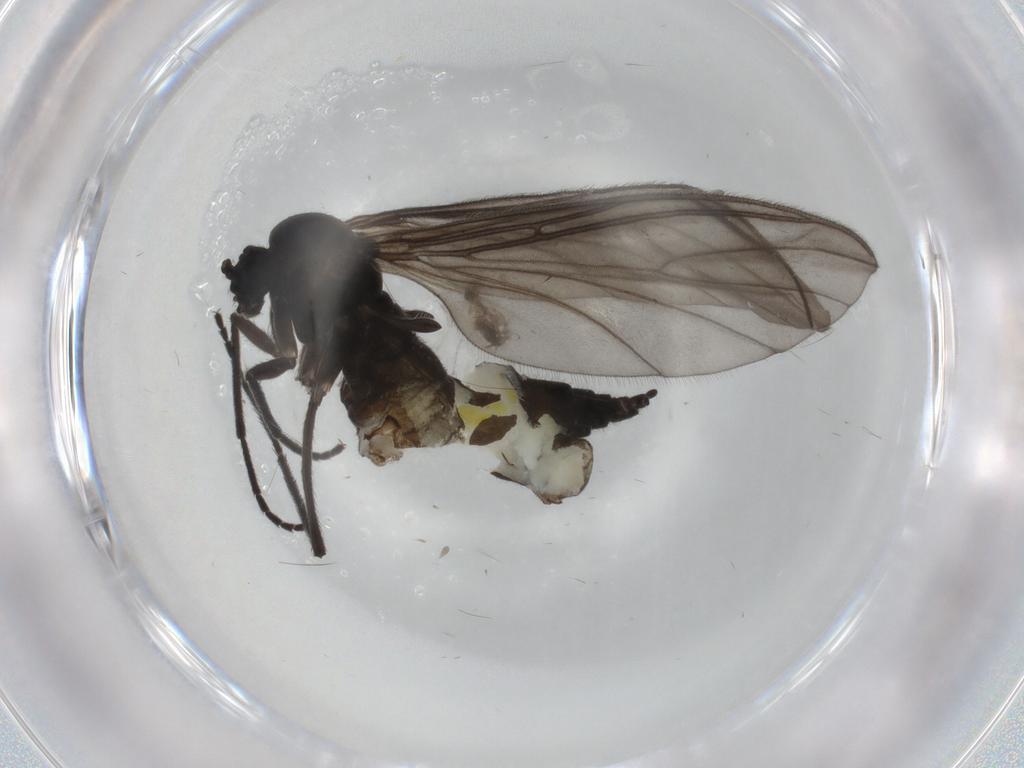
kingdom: Animalia
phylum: Arthropoda
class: Insecta
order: Diptera
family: Sciaridae
